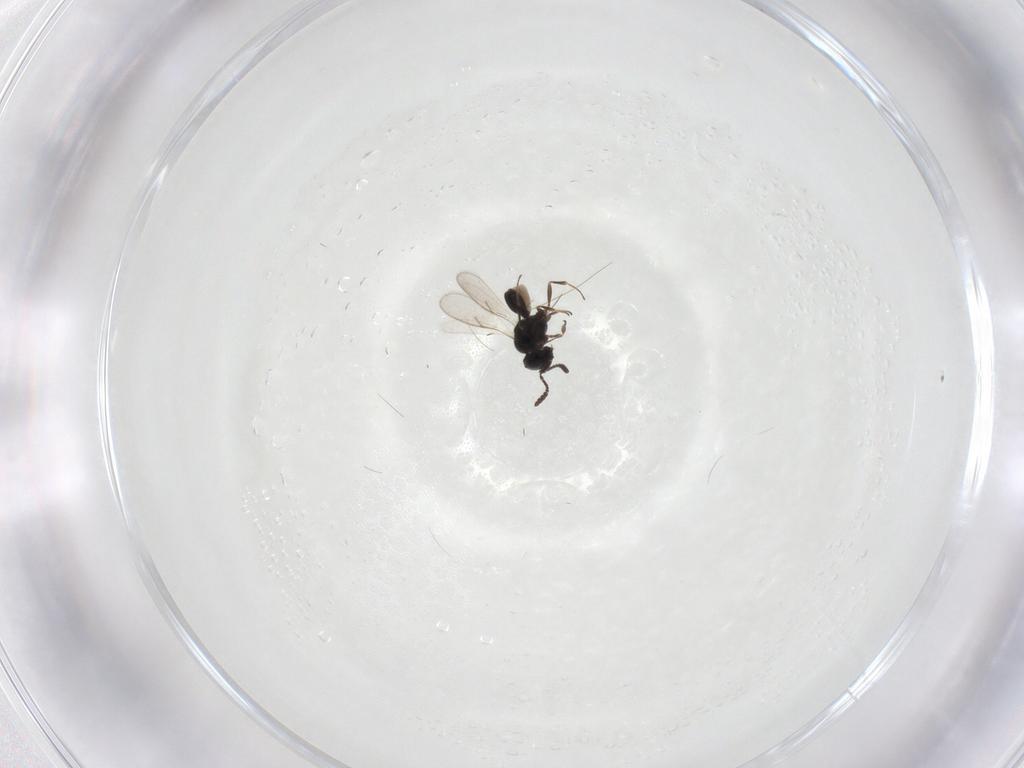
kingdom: Animalia
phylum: Arthropoda
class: Insecta
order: Hymenoptera
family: Scelionidae
